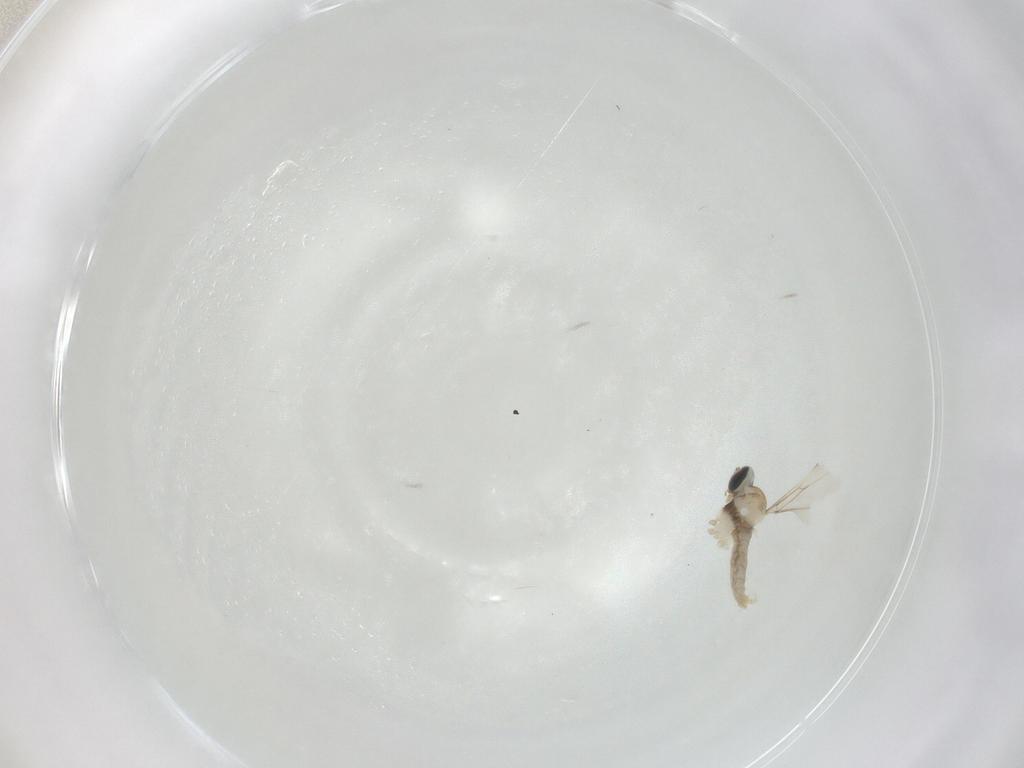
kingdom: Animalia
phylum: Arthropoda
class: Insecta
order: Diptera
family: Cecidomyiidae
